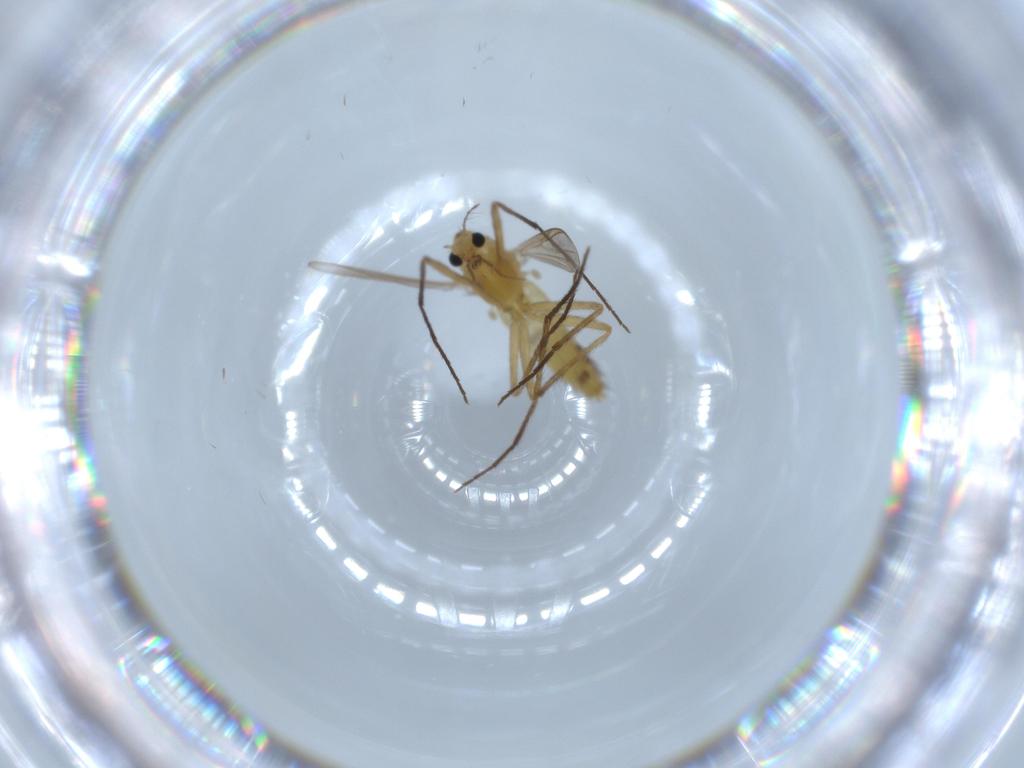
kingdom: Animalia
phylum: Arthropoda
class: Insecta
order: Diptera
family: Chironomidae
